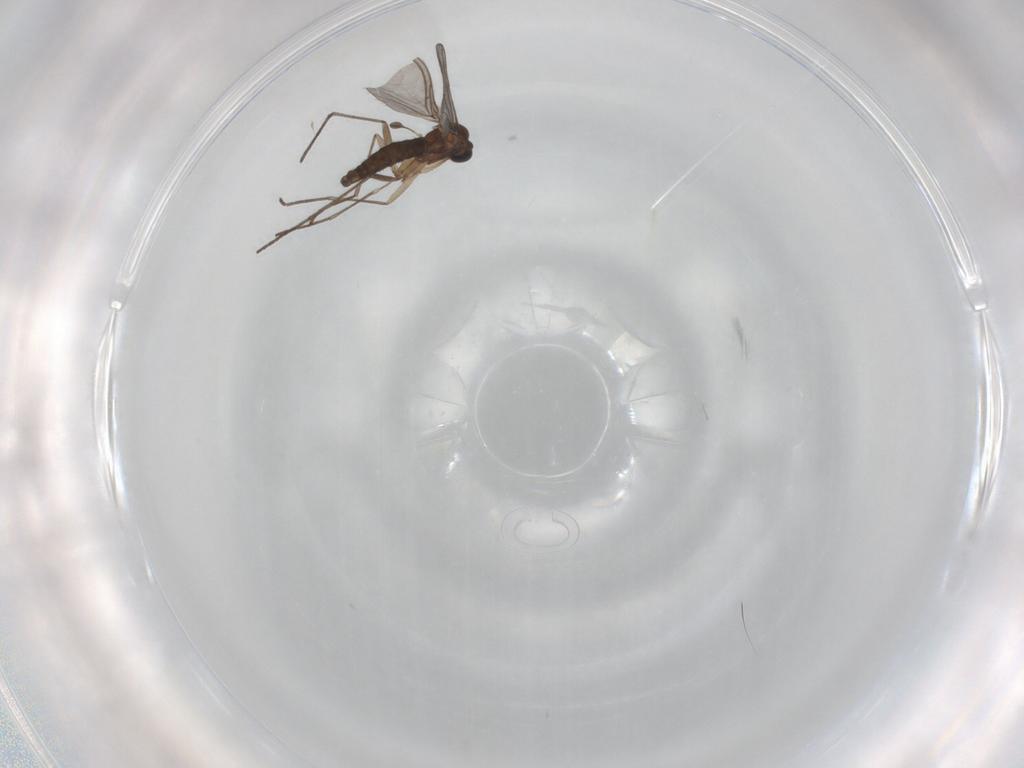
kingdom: Animalia
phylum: Arthropoda
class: Insecta
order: Diptera
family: Sciaridae
